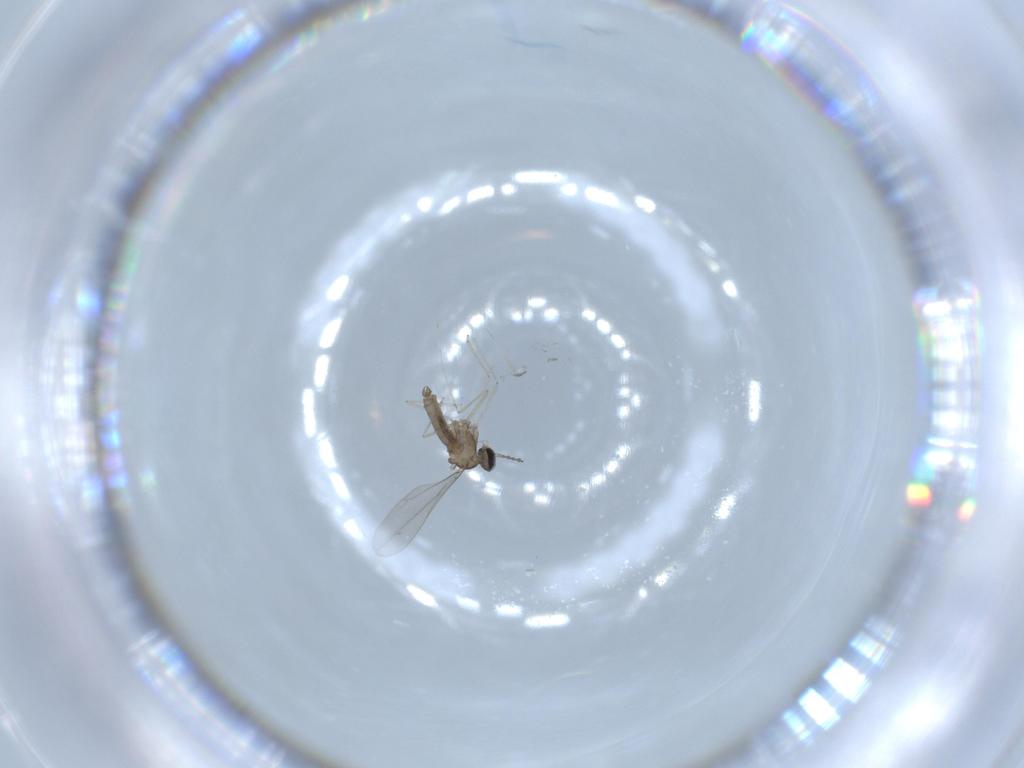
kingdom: Animalia
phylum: Arthropoda
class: Insecta
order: Diptera
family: Cecidomyiidae
